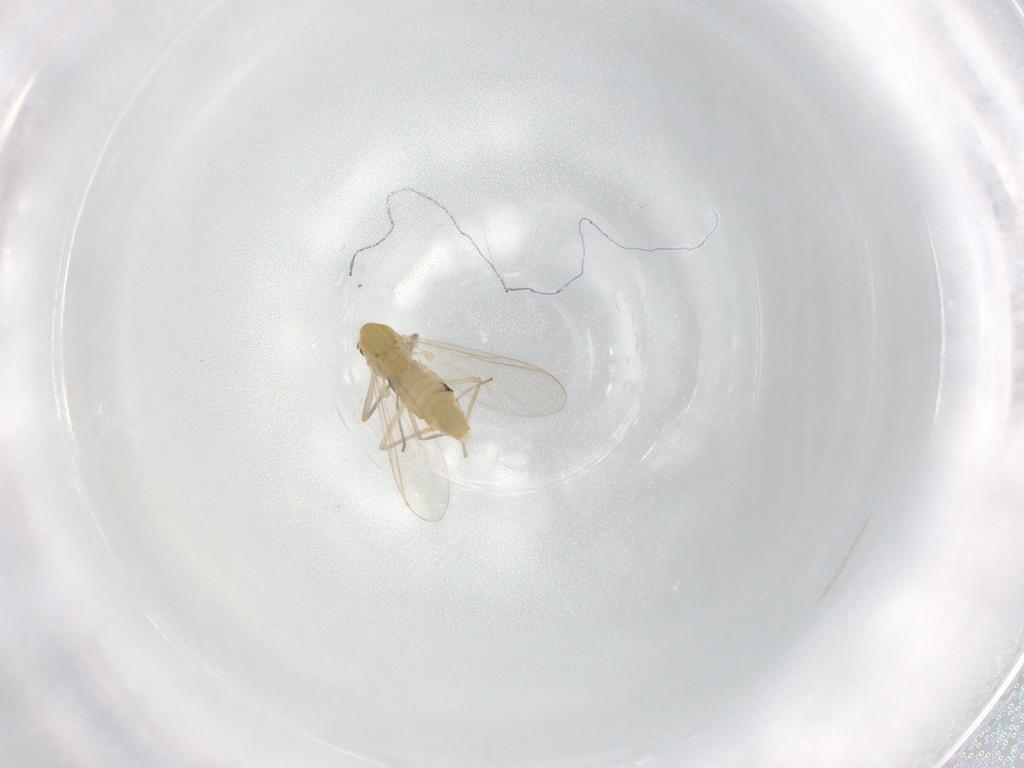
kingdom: Animalia
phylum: Arthropoda
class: Insecta
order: Diptera
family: Chironomidae
